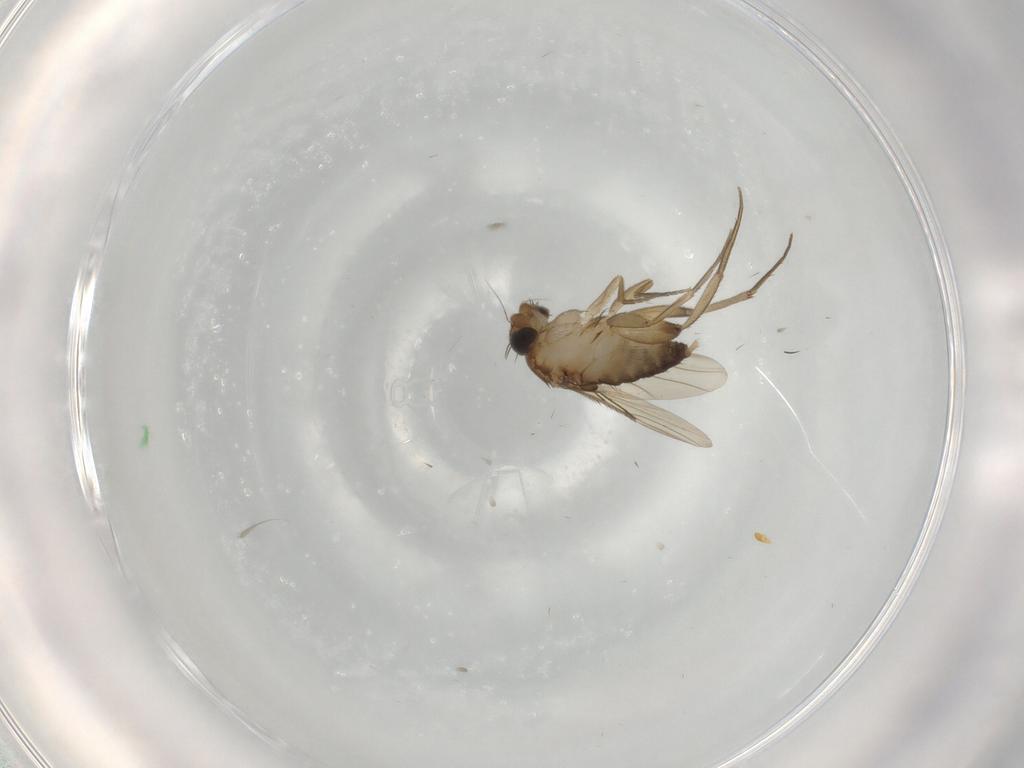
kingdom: Animalia
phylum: Arthropoda
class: Insecta
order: Diptera
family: Phoridae
